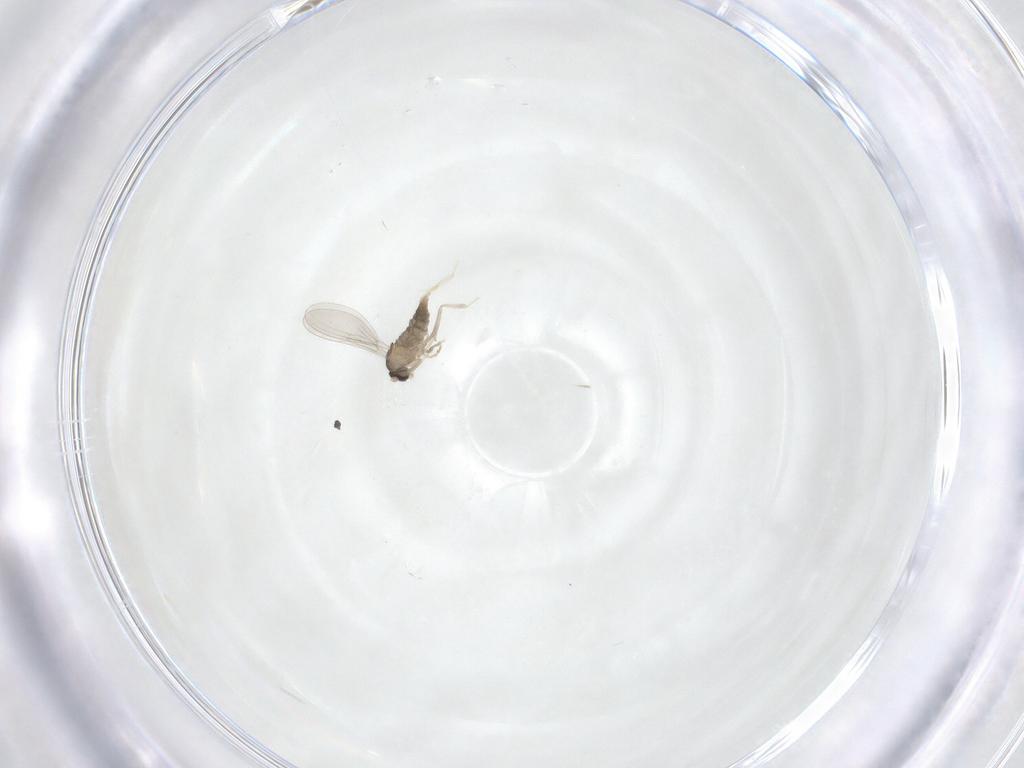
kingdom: Animalia
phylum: Arthropoda
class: Insecta
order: Diptera
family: Cecidomyiidae
